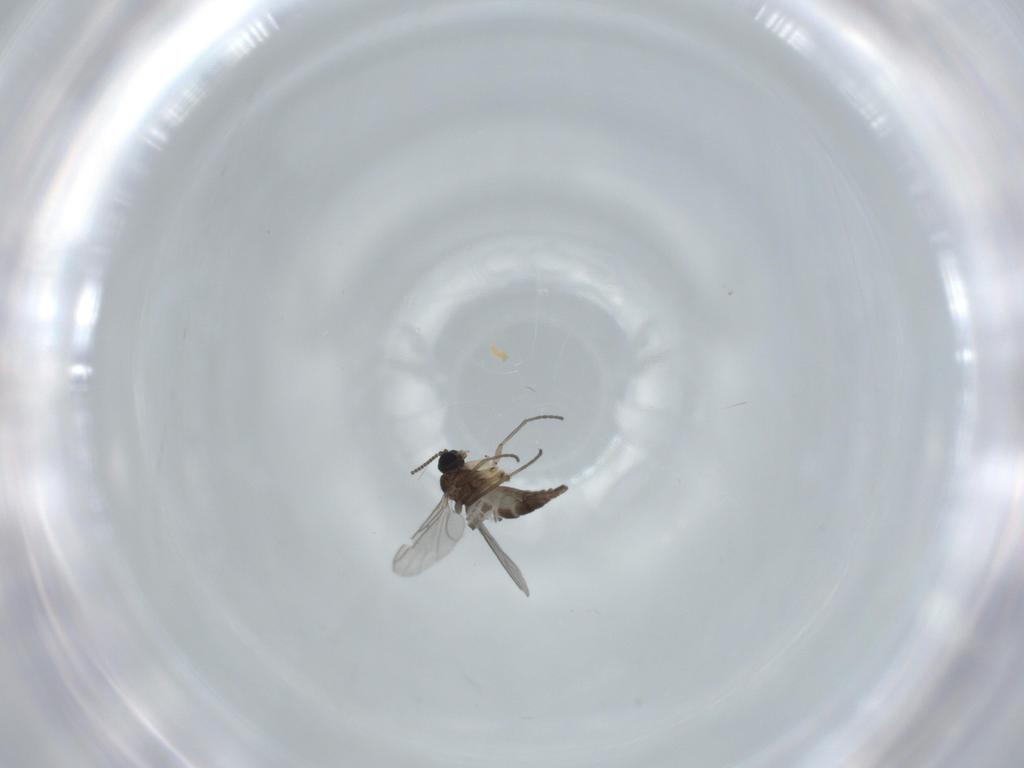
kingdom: Animalia
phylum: Arthropoda
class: Insecta
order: Diptera
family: Sciaridae
